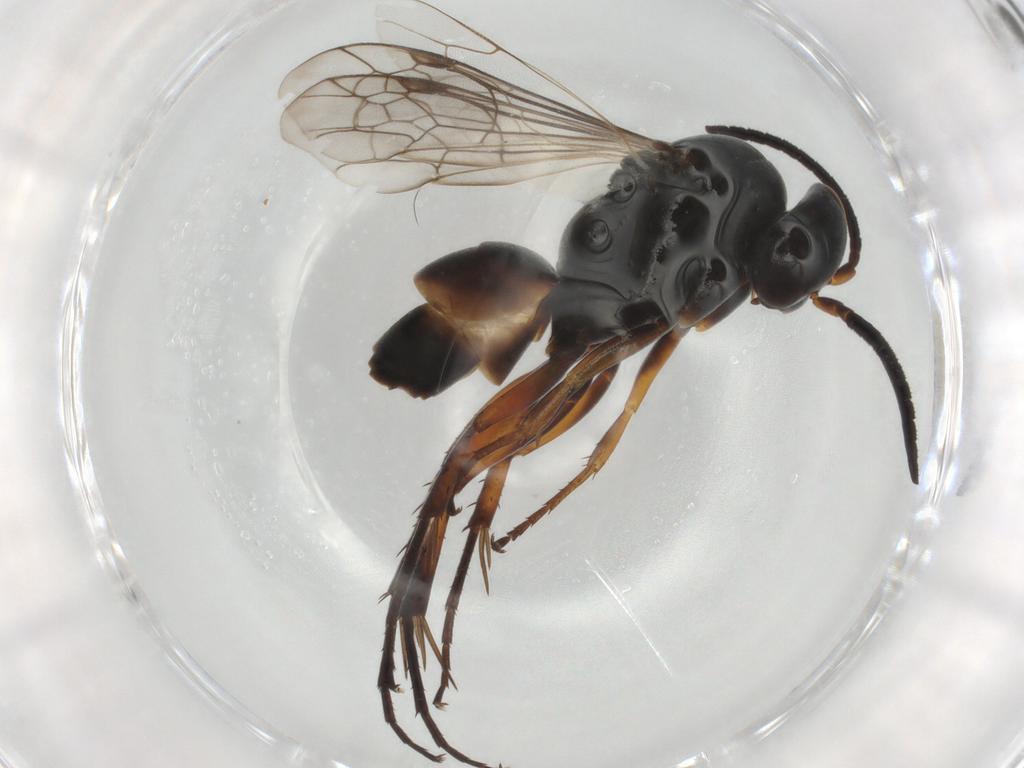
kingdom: Animalia
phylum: Arthropoda
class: Insecta
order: Hymenoptera
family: Pompilidae
